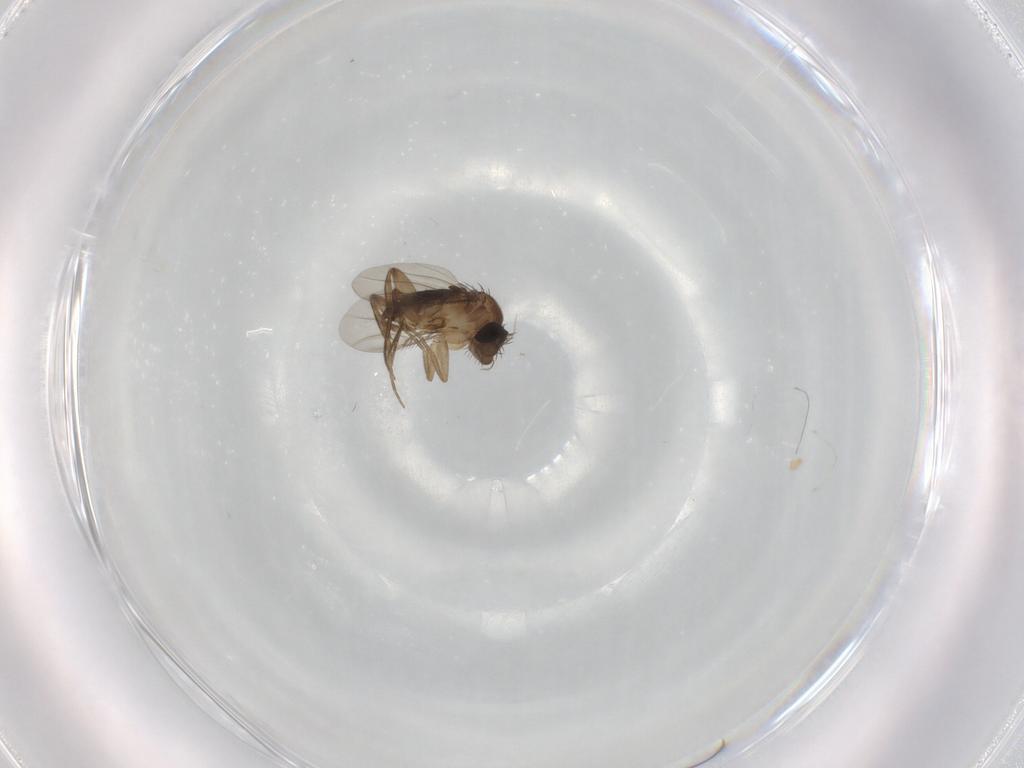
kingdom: Animalia
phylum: Arthropoda
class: Insecta
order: Diptera
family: Phoridae
